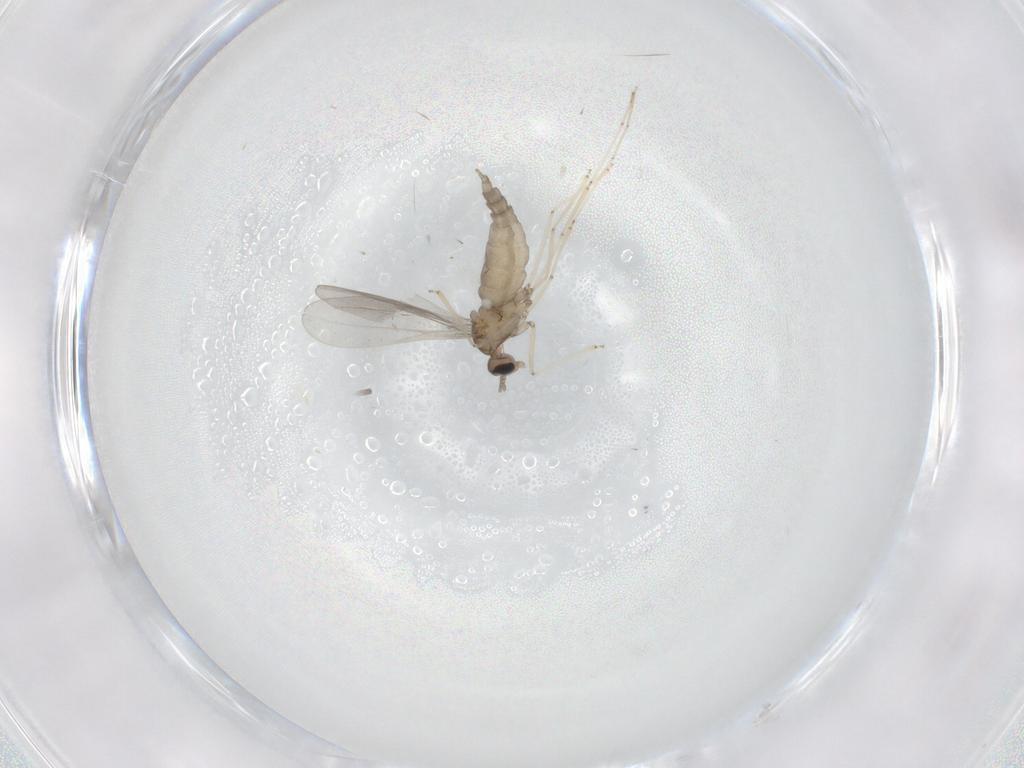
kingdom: Animalia
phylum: Arthropoda
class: Insecta
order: Diptera
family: Cecidomyiidae
